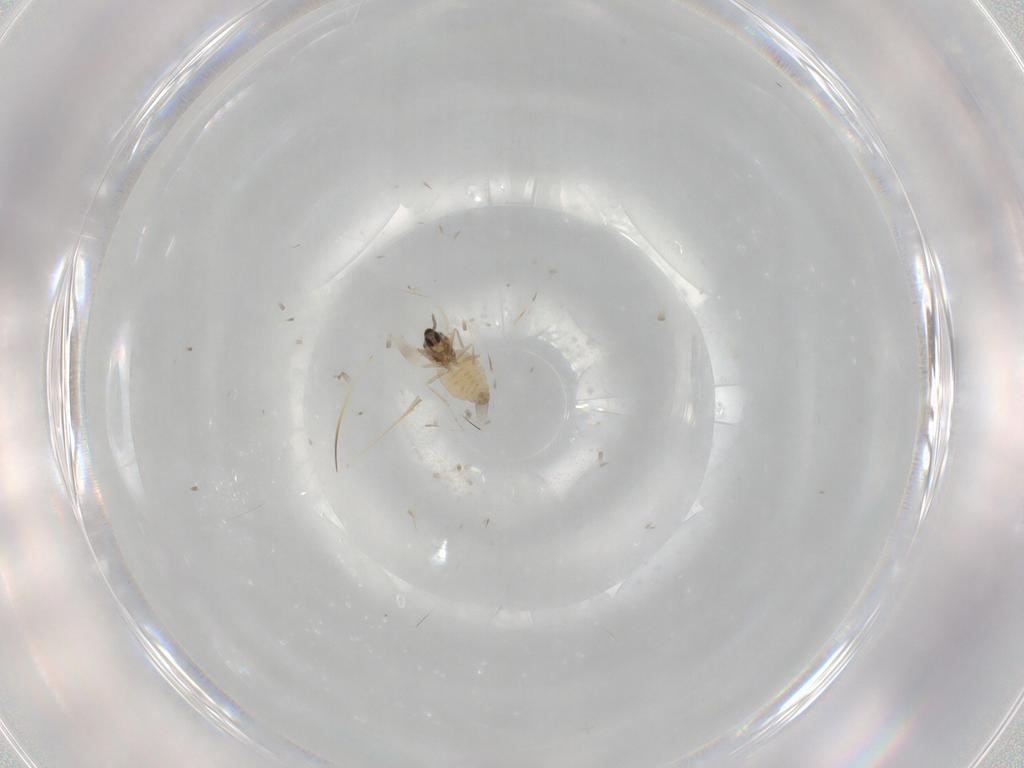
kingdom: Animalia
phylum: Arthropoda
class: Insecta
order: Diptera
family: Cecidomyiidae
